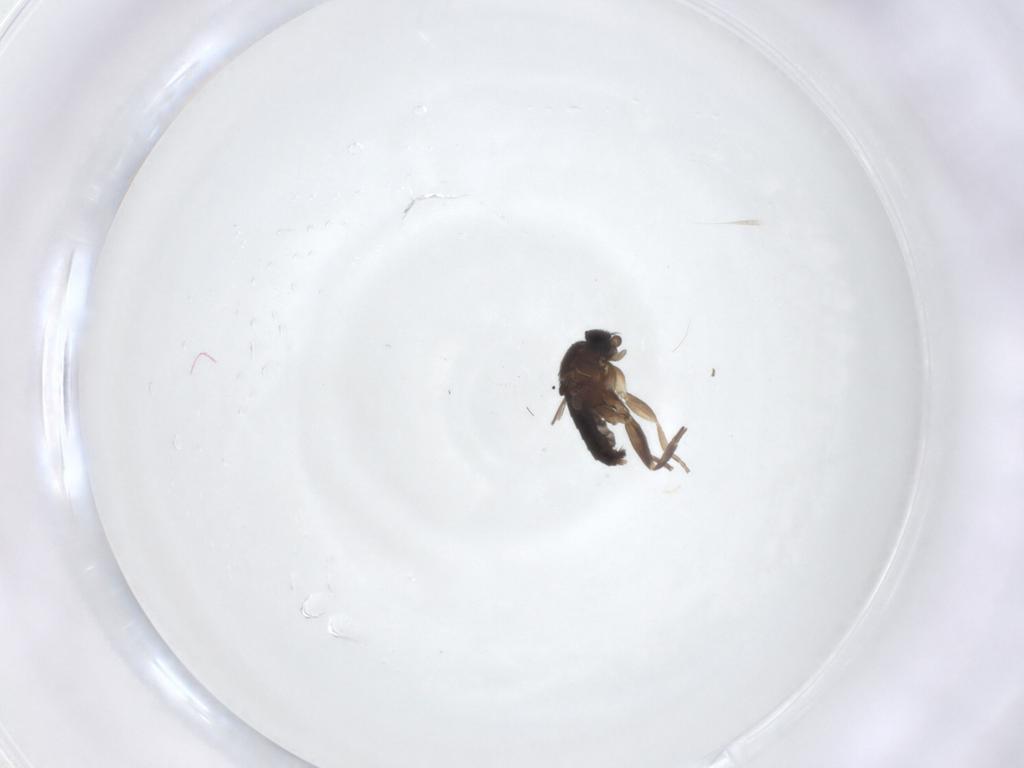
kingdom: Animalia
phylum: Arthropoda
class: Insecta
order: Diptera
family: Phoridae
